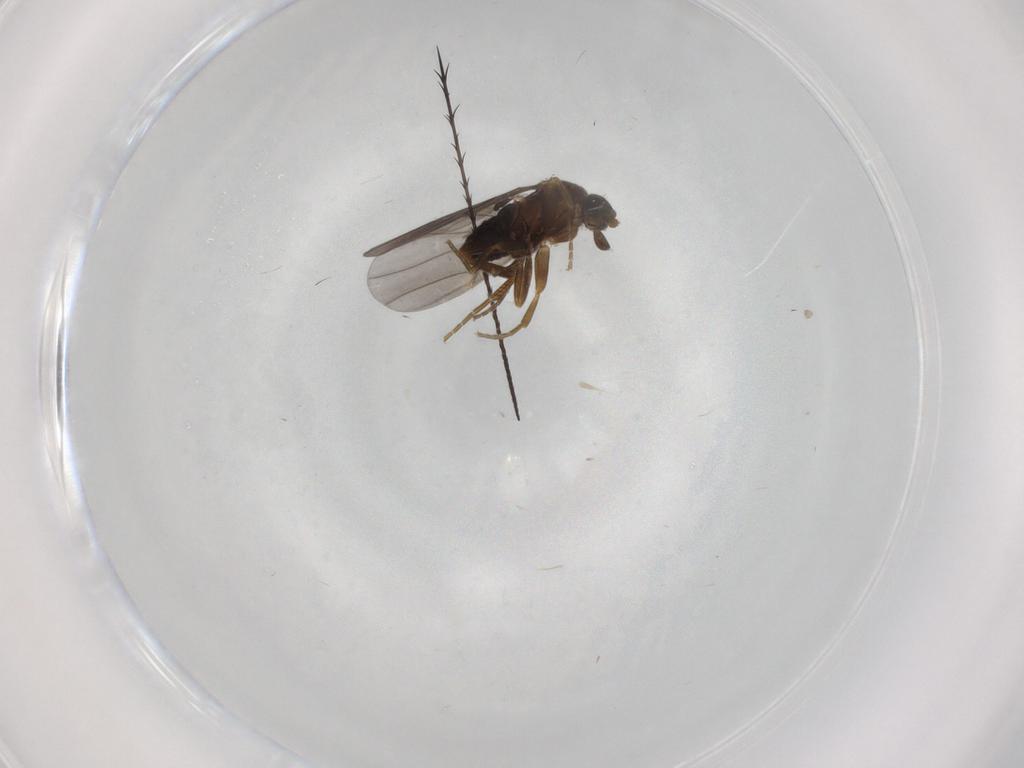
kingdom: Animalia
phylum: Arthropoda
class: Insecta
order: Diptera
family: Phoridae
